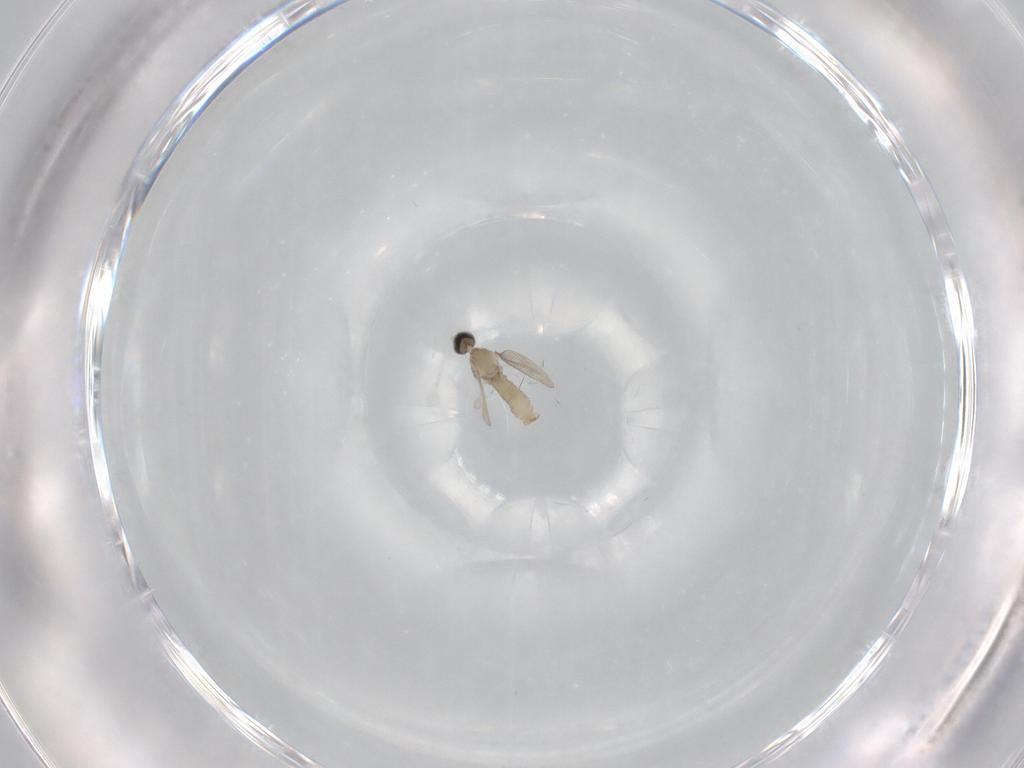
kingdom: Animalia
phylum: Arthropoda
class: Insecta
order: Diptera
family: Cecidomyiidae
